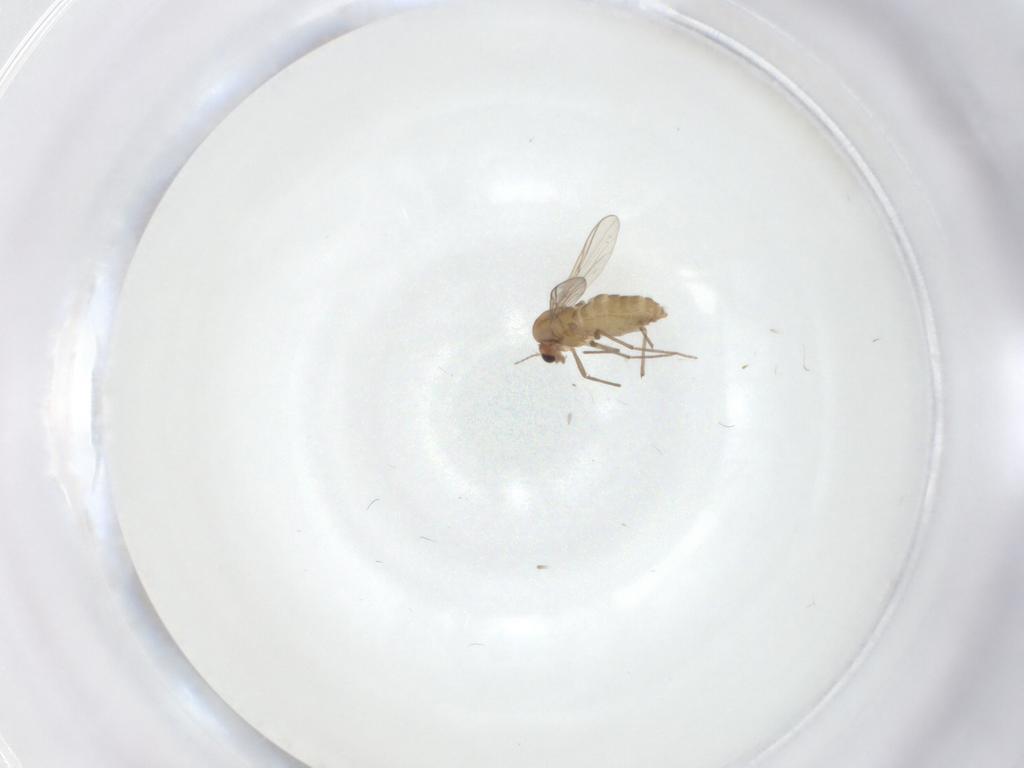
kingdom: Animalia
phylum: Arthropoda
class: Insecta
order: Diptera
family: Chironomidae
